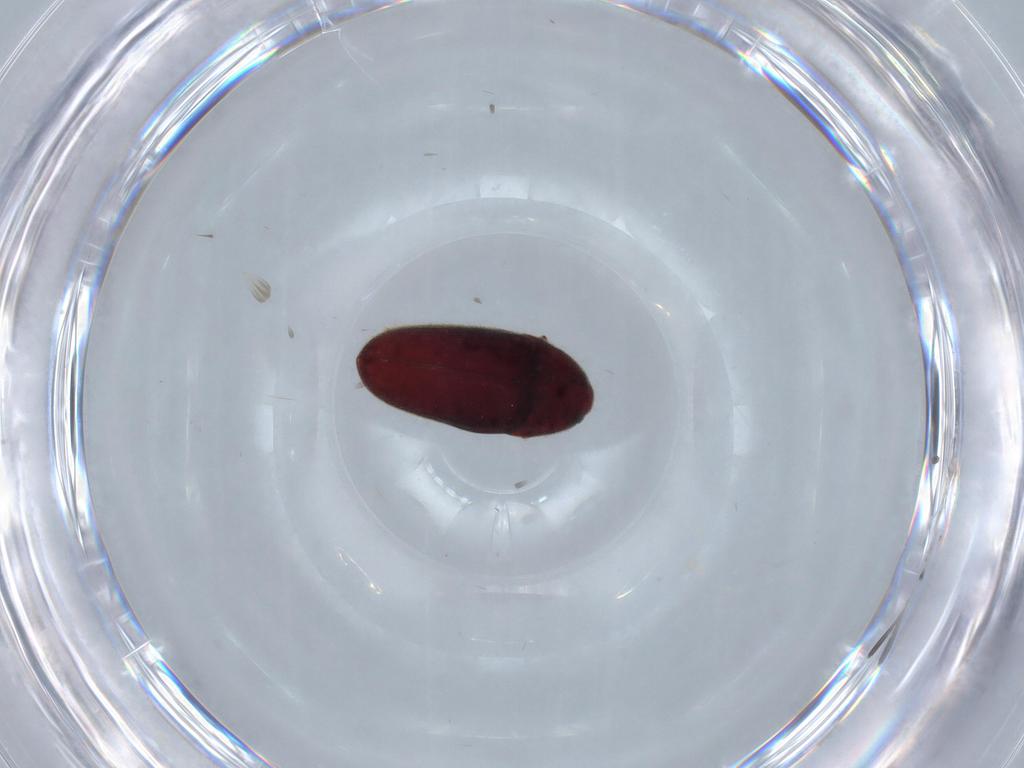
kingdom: Animalia
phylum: Arthropoda
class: Insecta
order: Coleoptera
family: Throscidae
